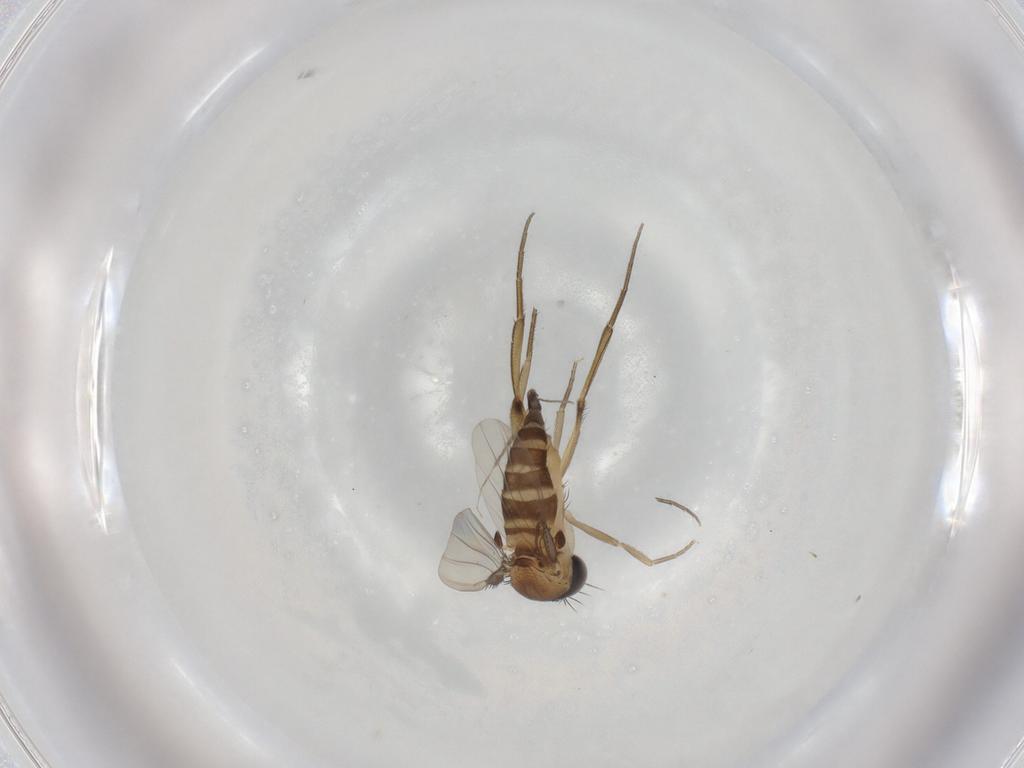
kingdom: Animalia
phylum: Arthropoda
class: Insecta
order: Diptera
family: Phoridae
